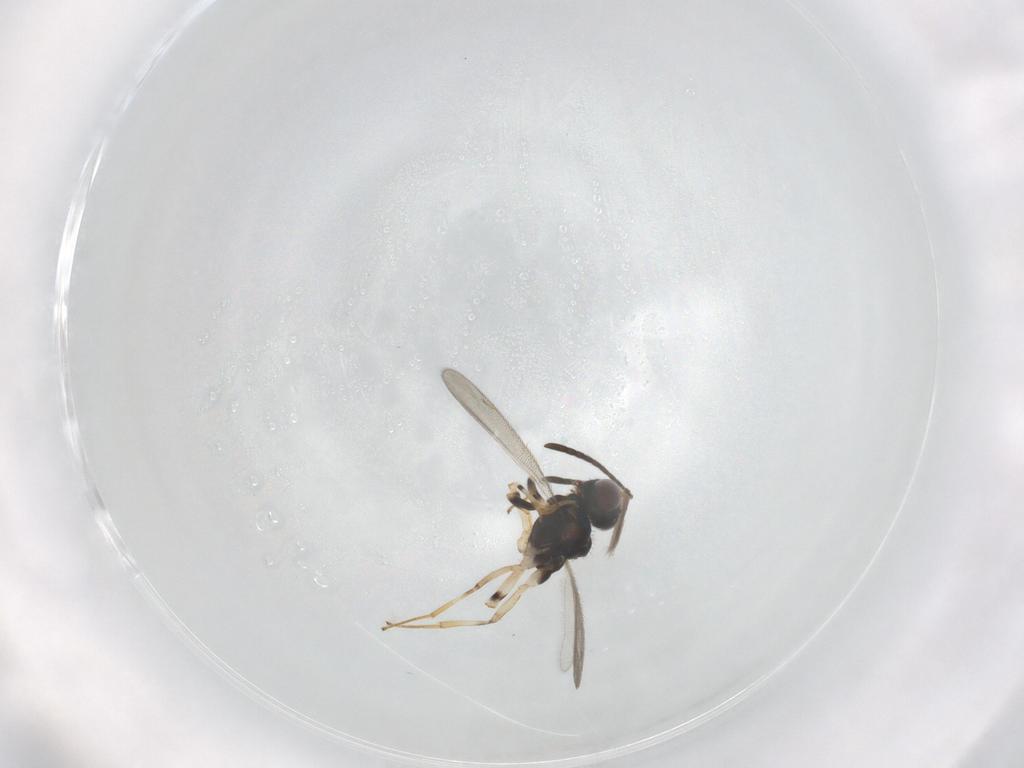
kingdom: Animalia
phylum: Arthropoda
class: Insecta
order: Hymenoptera
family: Eupelmidae
